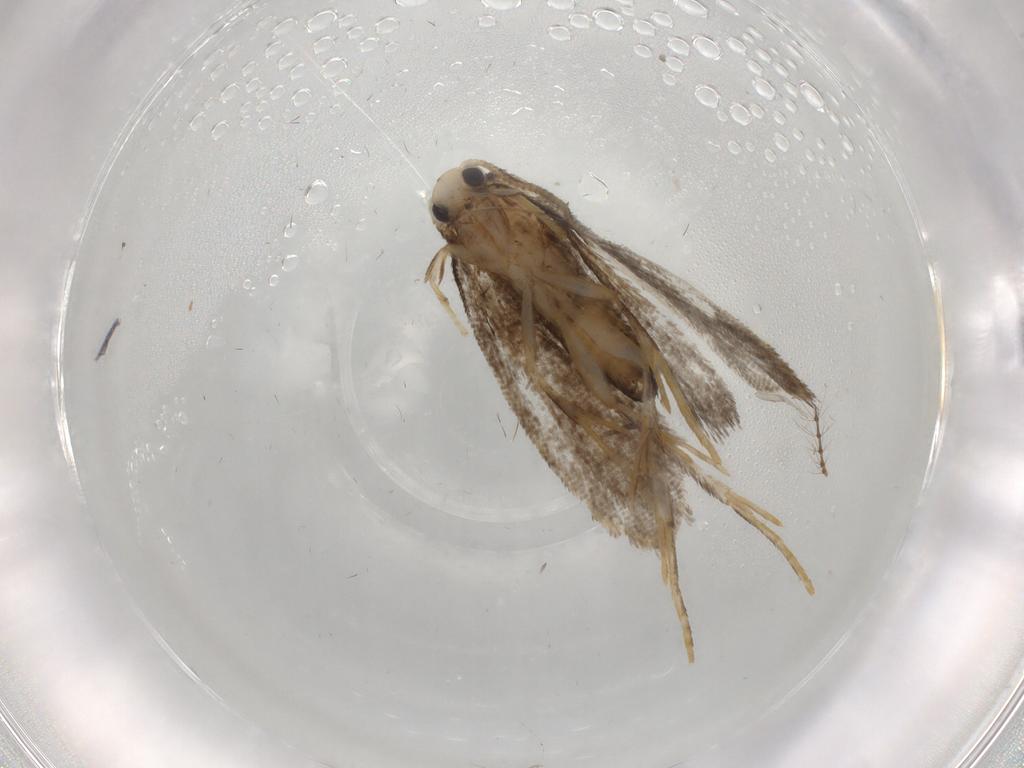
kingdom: Animalia
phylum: Arthropoda
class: Insecta
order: Lepidoptera
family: Psychidae
